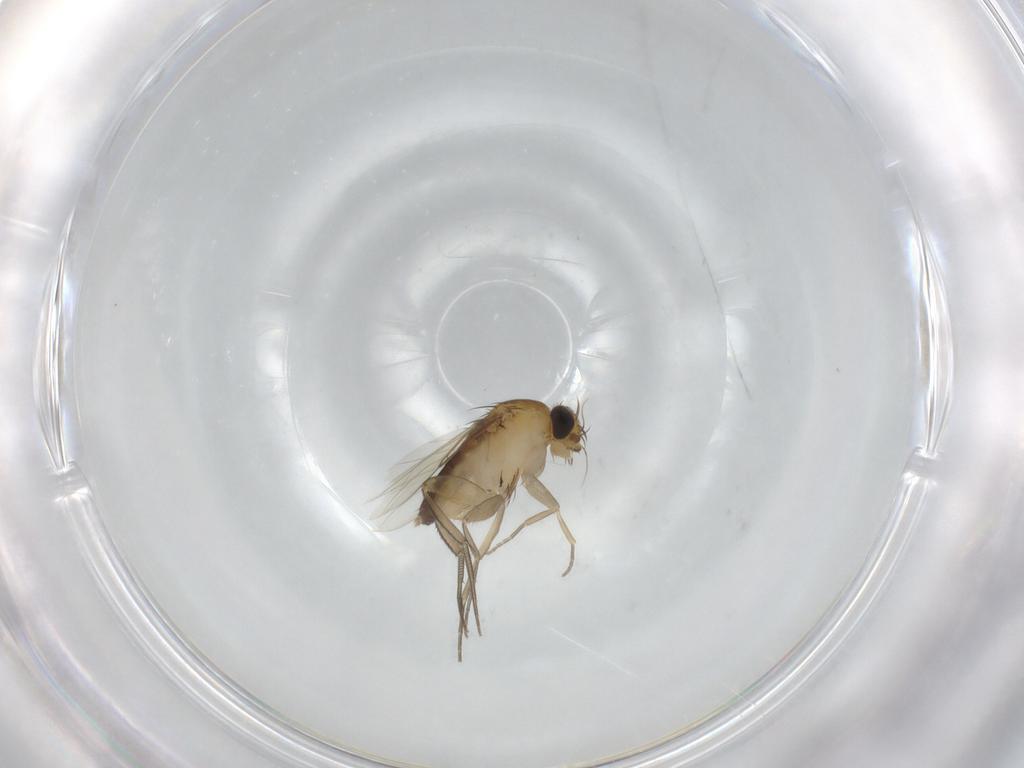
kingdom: Animalia
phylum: Arthropoda
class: Insecta
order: Diptera
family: Phoridae
